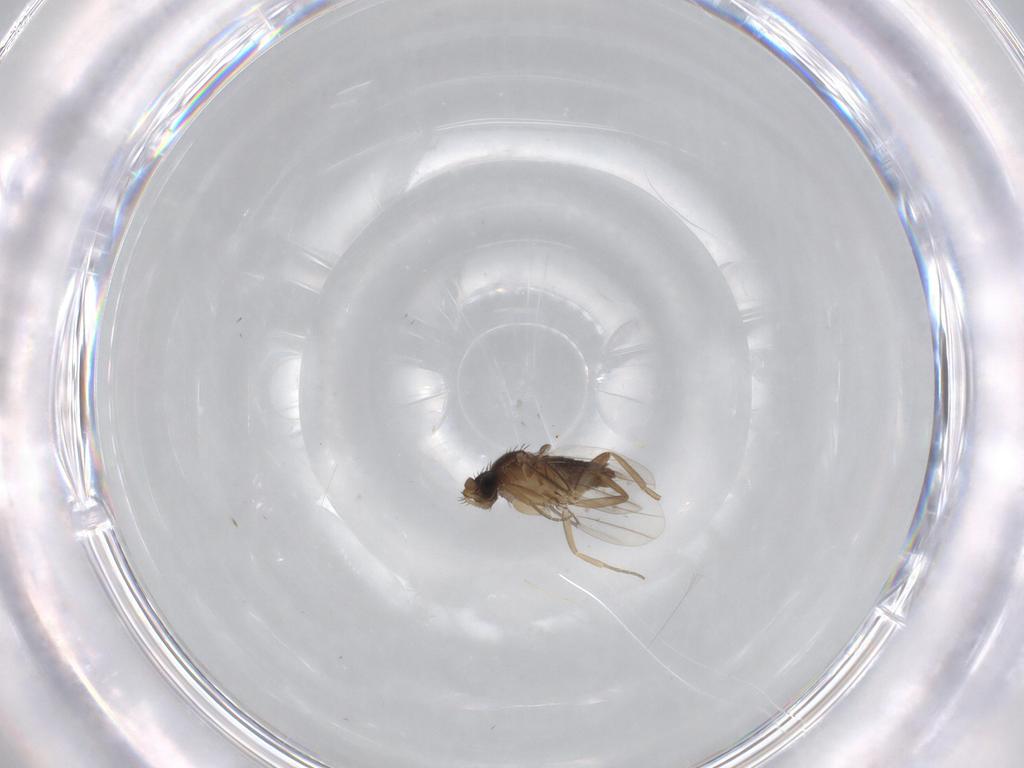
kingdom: Animalia
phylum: Arthropoda
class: Insecta
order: Diptera
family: Phoridae
